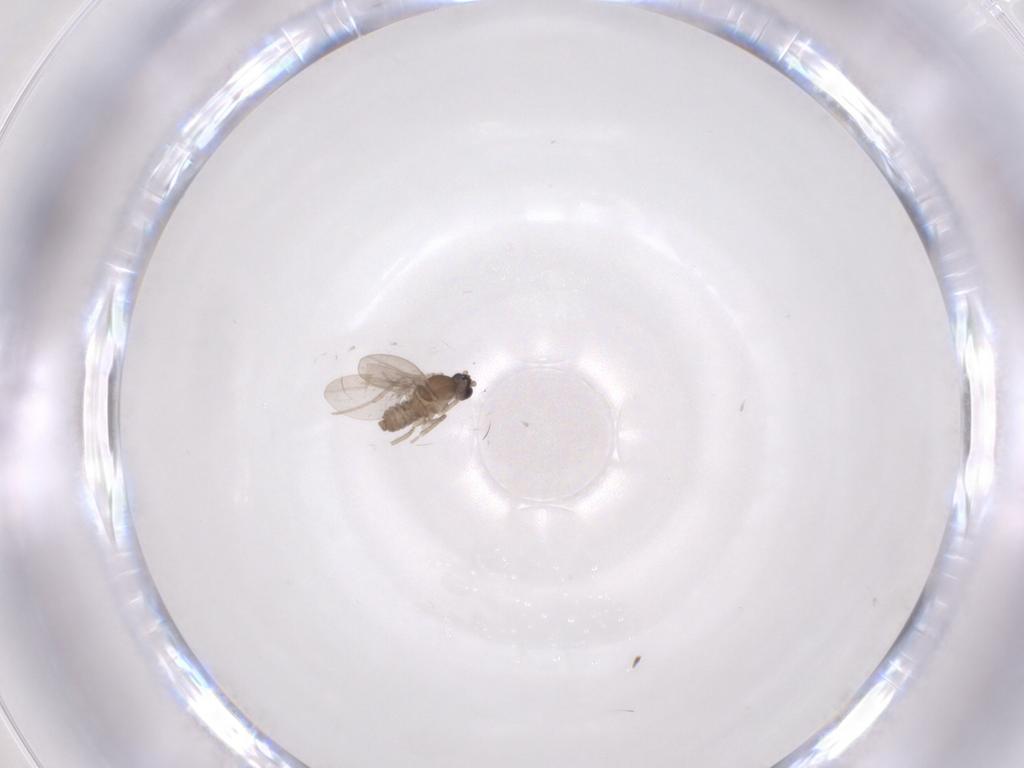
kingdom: Animalia
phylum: Arthropoda
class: Insecta
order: Diptera
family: Cecidomyiidae
